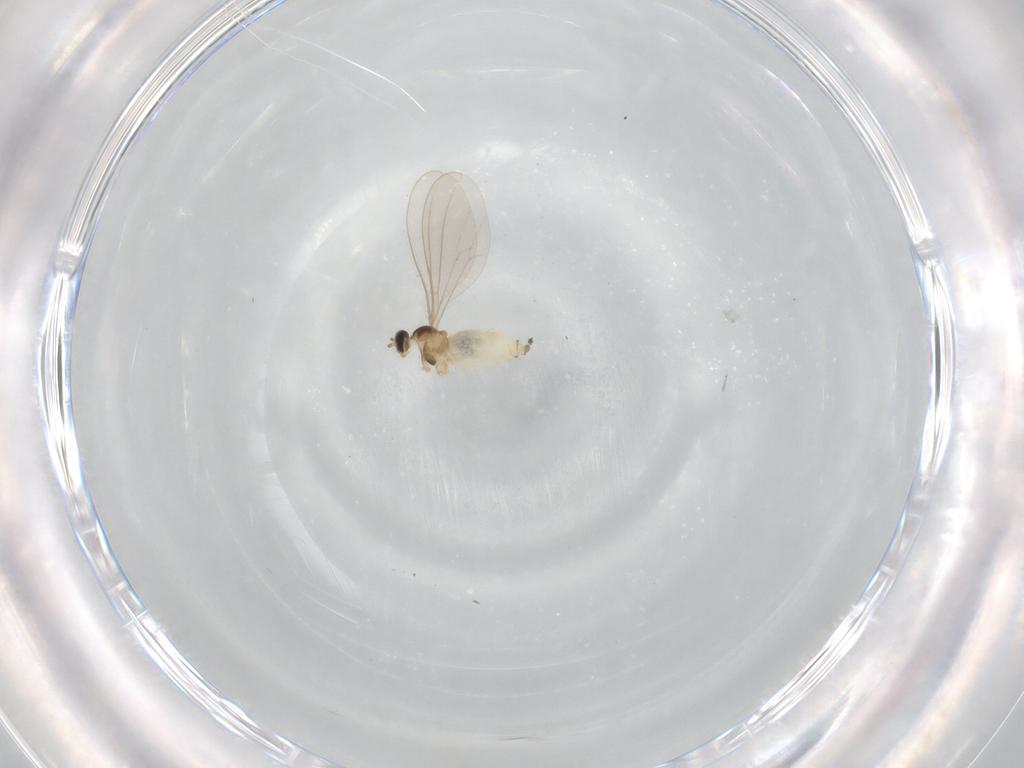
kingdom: Animalia
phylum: Arthropoda
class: Insecta
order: Diptera
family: Cecidomyiidae
